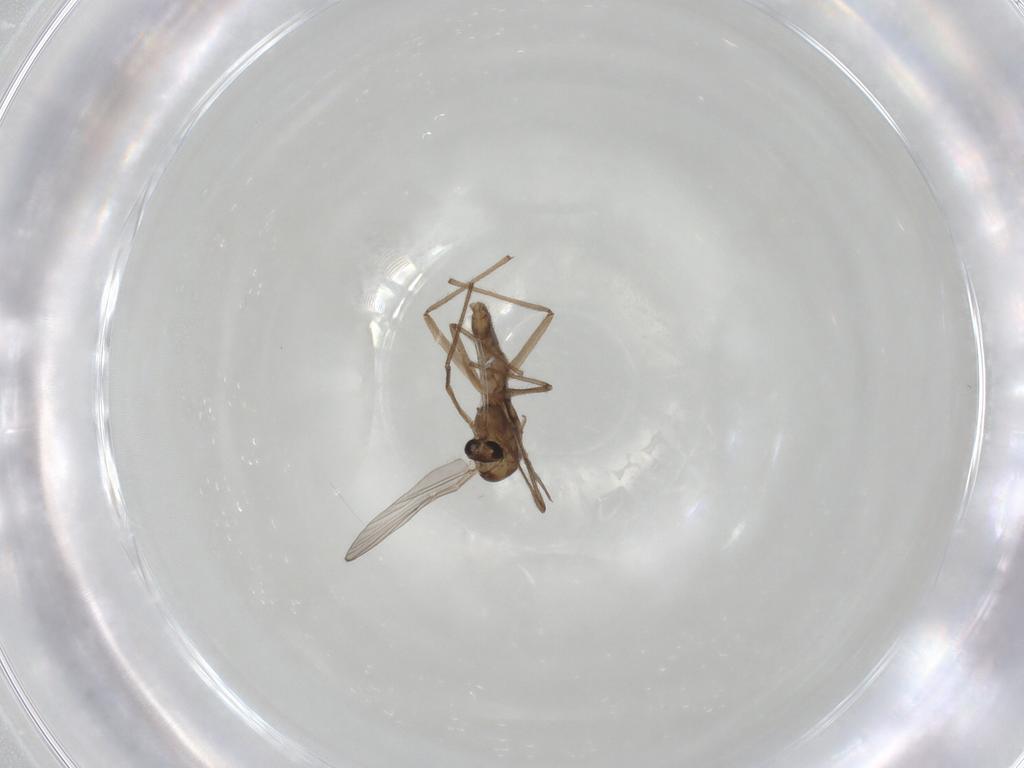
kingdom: Animalia
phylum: Arthropoda
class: Insecta
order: Diptera
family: Chironomidae
